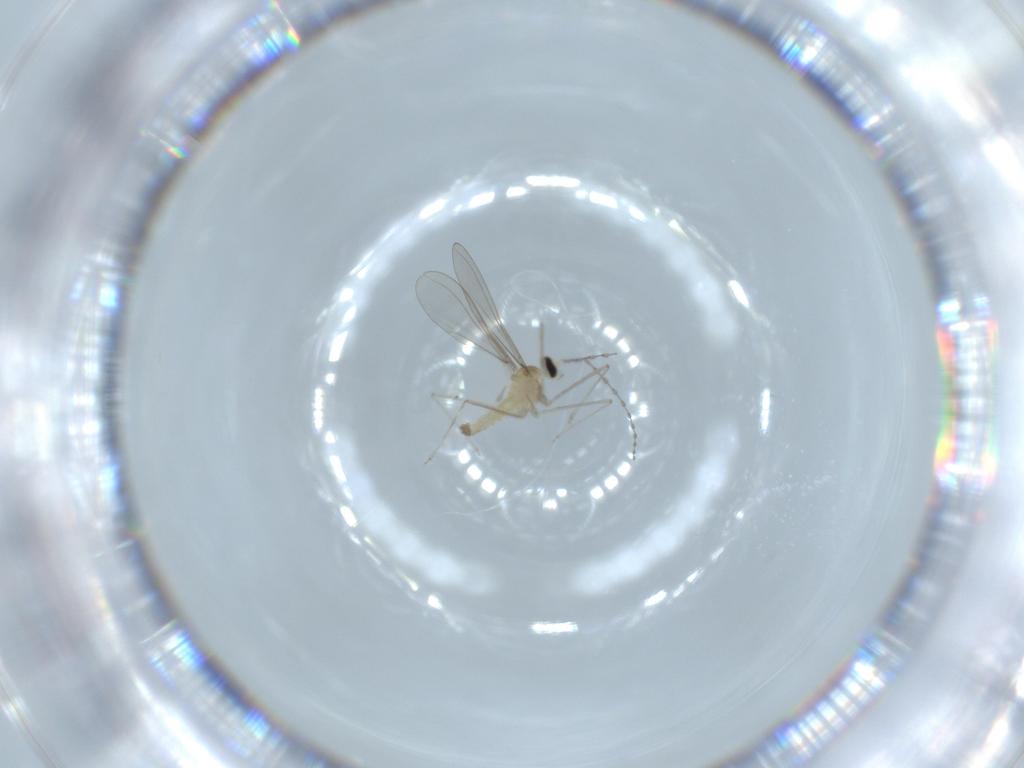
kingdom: Animalia
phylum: Arthropoda
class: Insecta
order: Diptera
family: Cecidomyiidae
